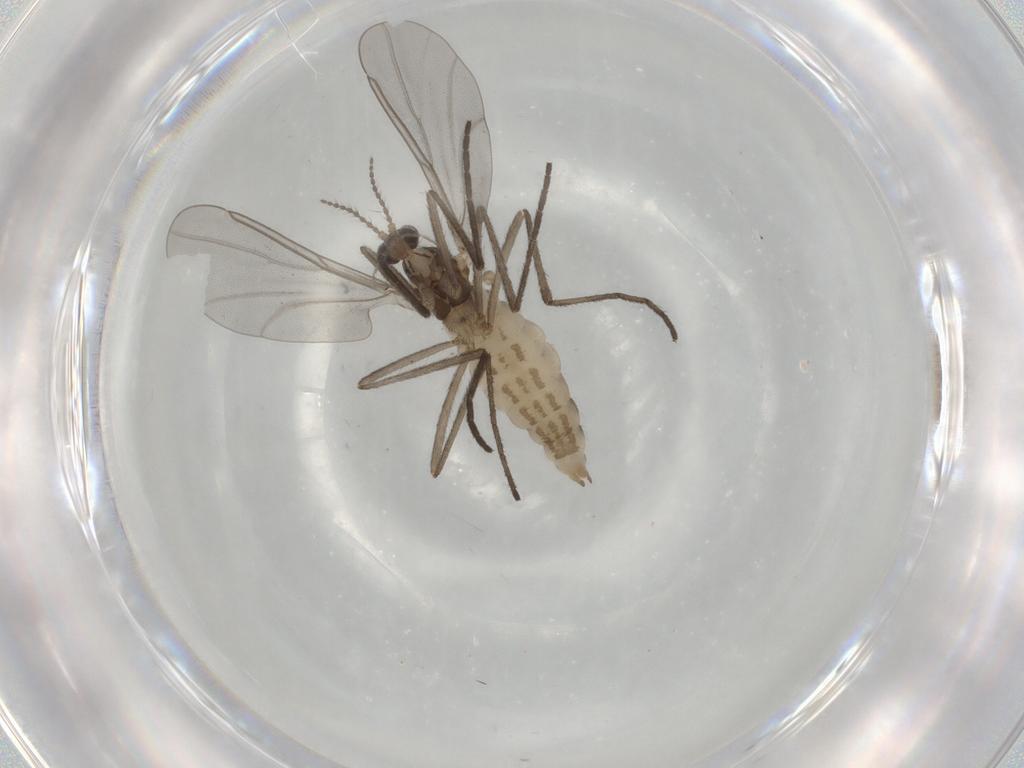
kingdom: Animalia
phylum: Arthropoda
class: Insecta
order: Diptera
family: Cecidomyiidae
